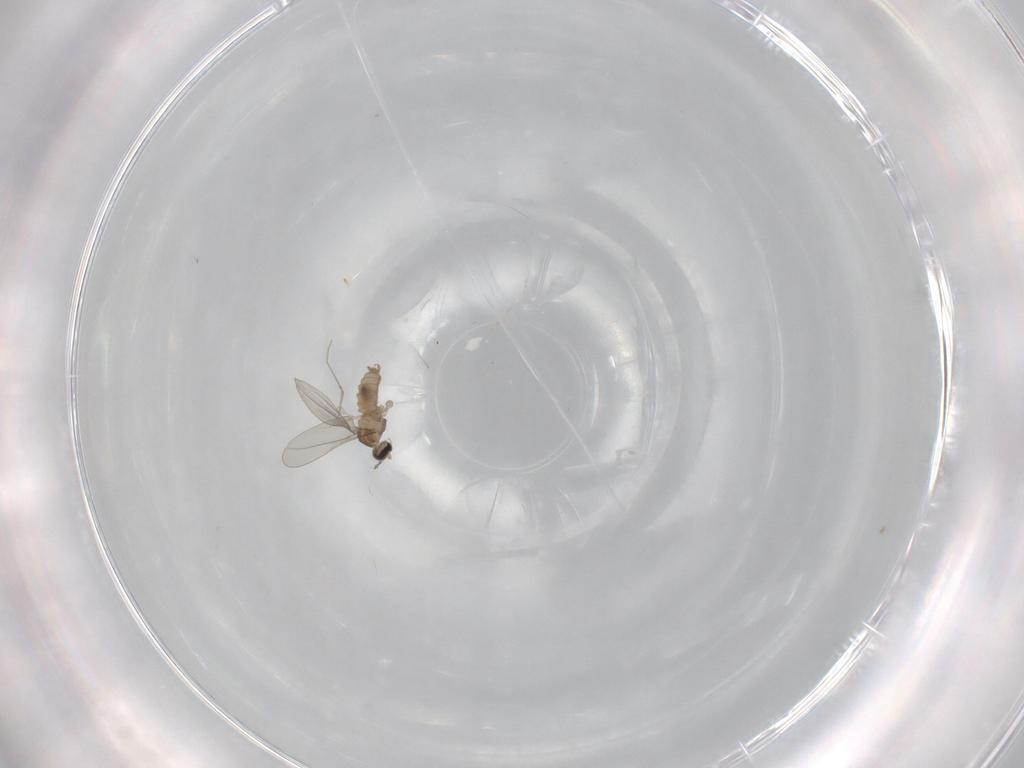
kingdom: Animalia
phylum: Arthropoda
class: Insecta
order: Diptera
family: Cecidomyiidae
